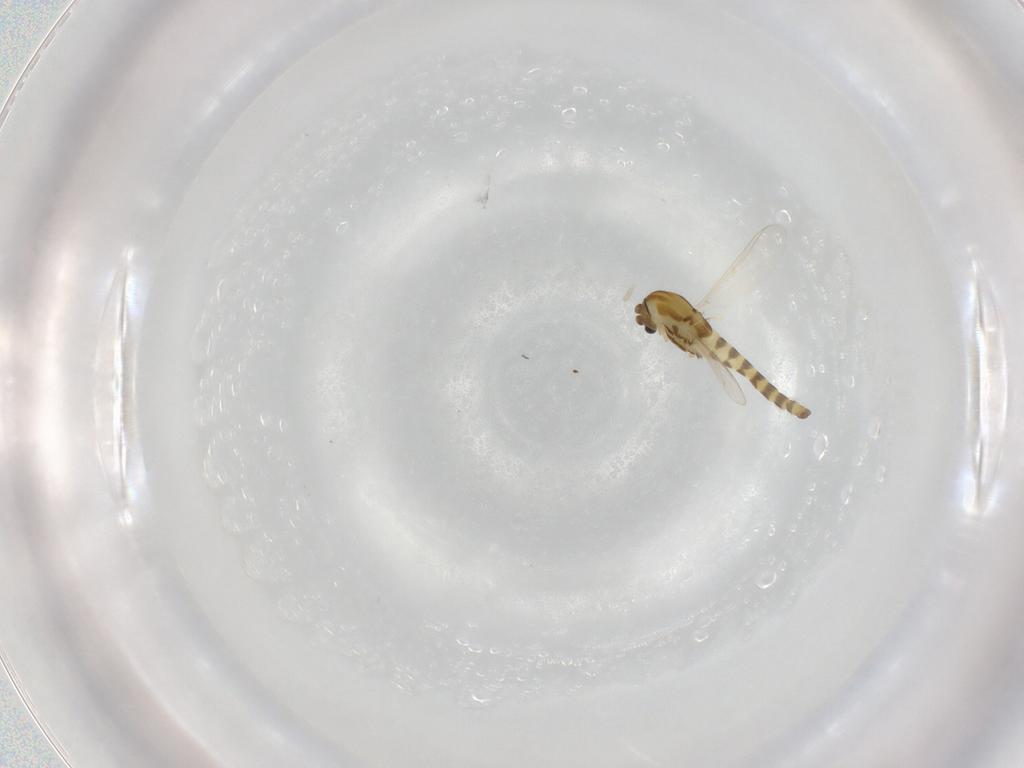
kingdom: Animalia
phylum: Arthropoda
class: Insecta
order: Diptera
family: Chironomidae
